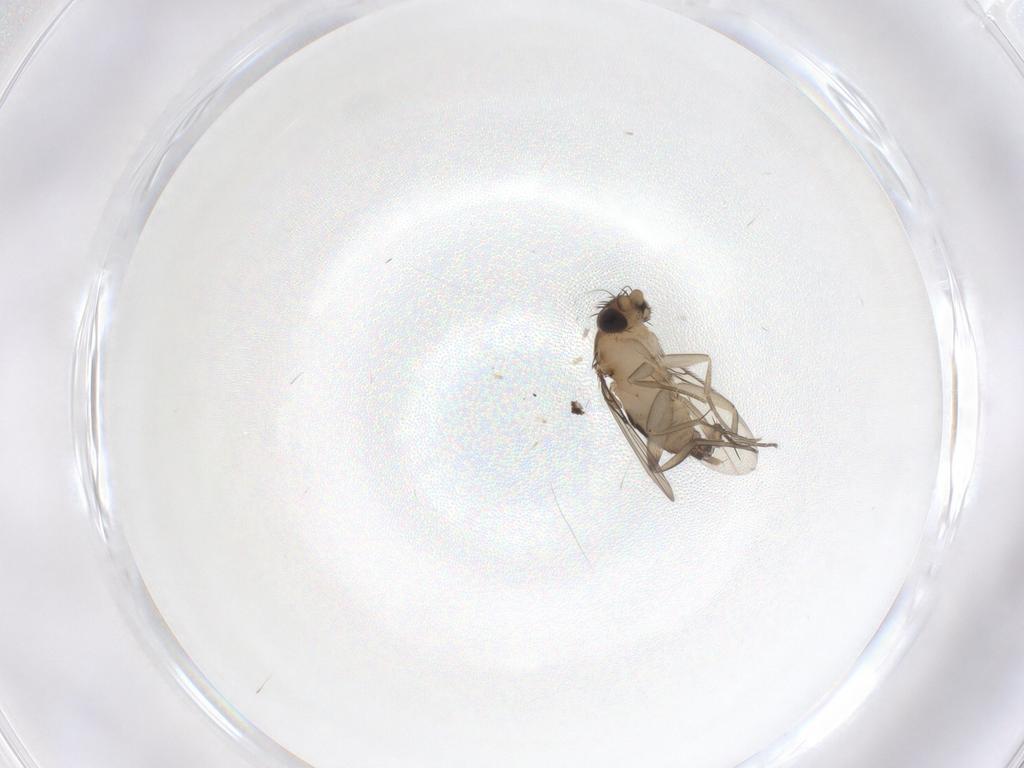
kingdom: Animalia
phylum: Arthropoda
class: Insecta
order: Diptera
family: Phoridae
